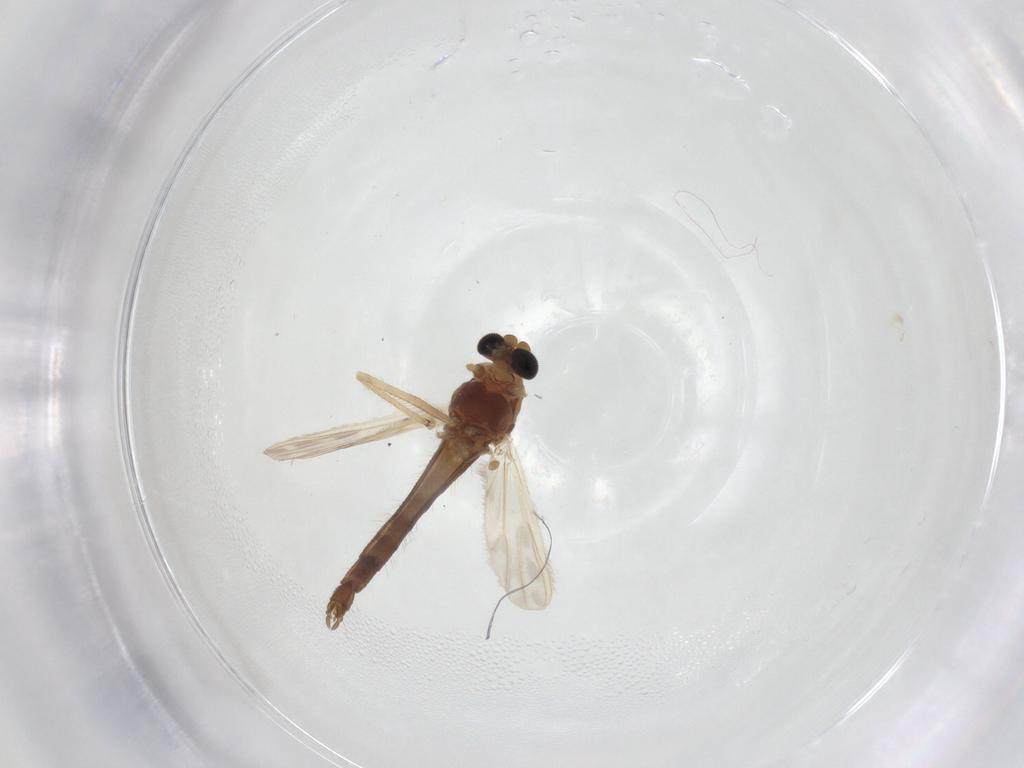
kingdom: Animalia
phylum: Arthropoda
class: Insecta
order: Diptera
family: Chironomidae
